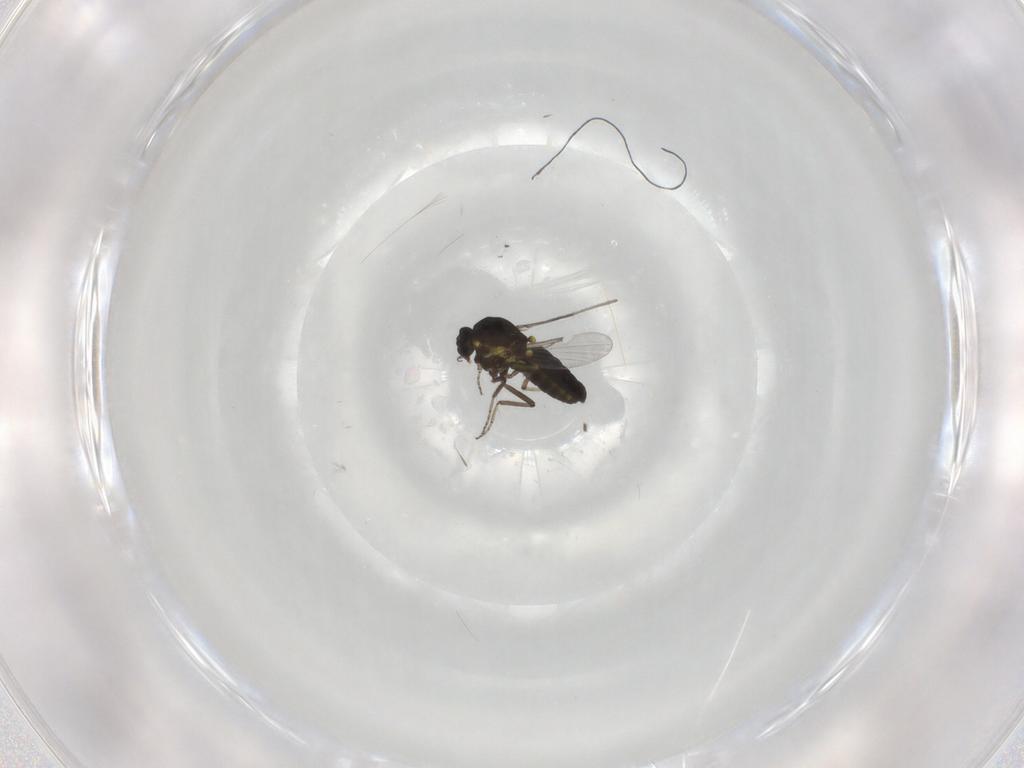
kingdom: Animalia
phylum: Arthropoda
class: Insecta
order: Diptera
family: Ceratopogonidae
